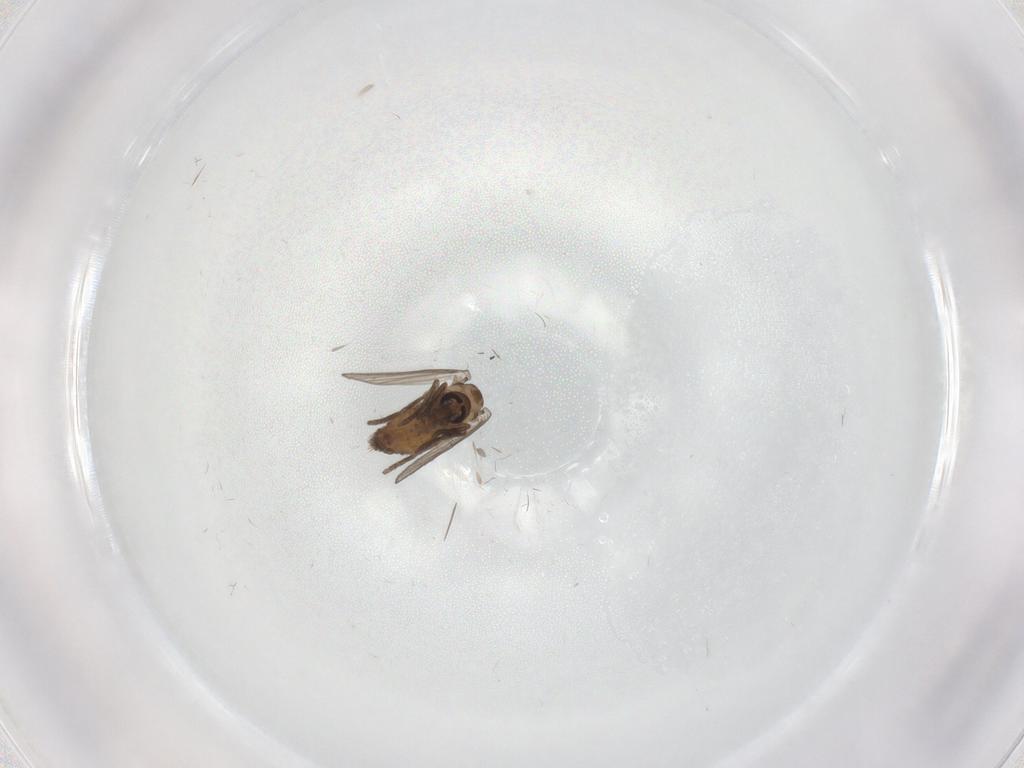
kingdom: Animalia
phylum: Arthropoda
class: Insecta
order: Diptera
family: Psychodidae
